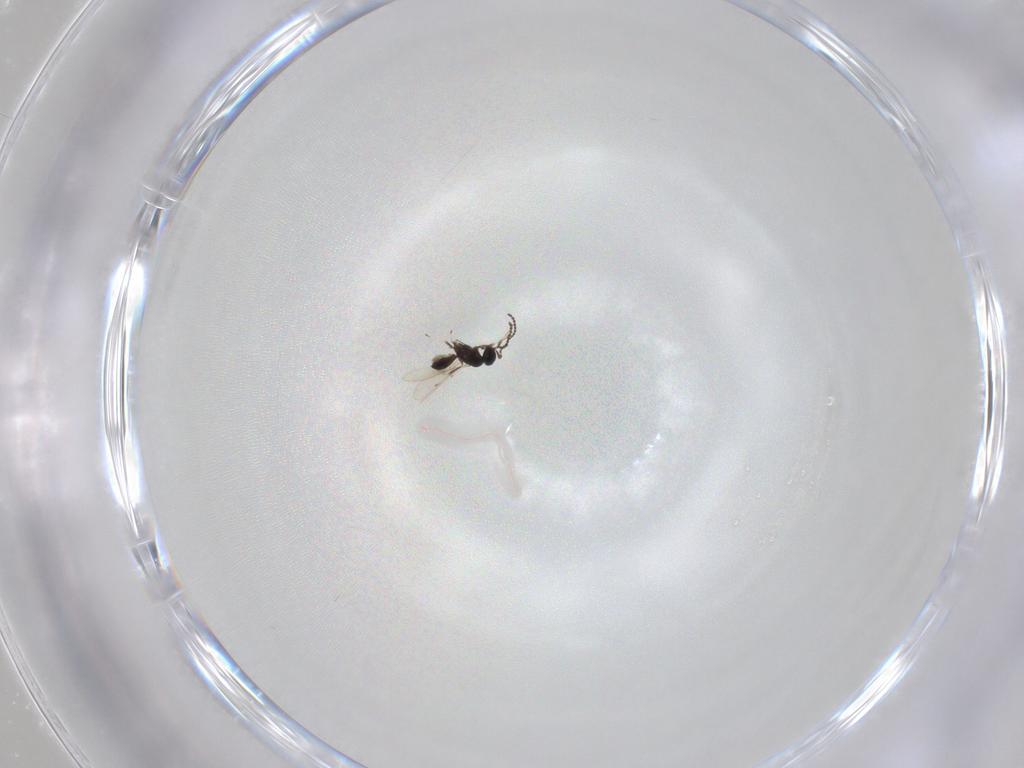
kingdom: Animalia
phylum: Arthropoda
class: Insecta
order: Hymenoptera
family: Scelionidae
